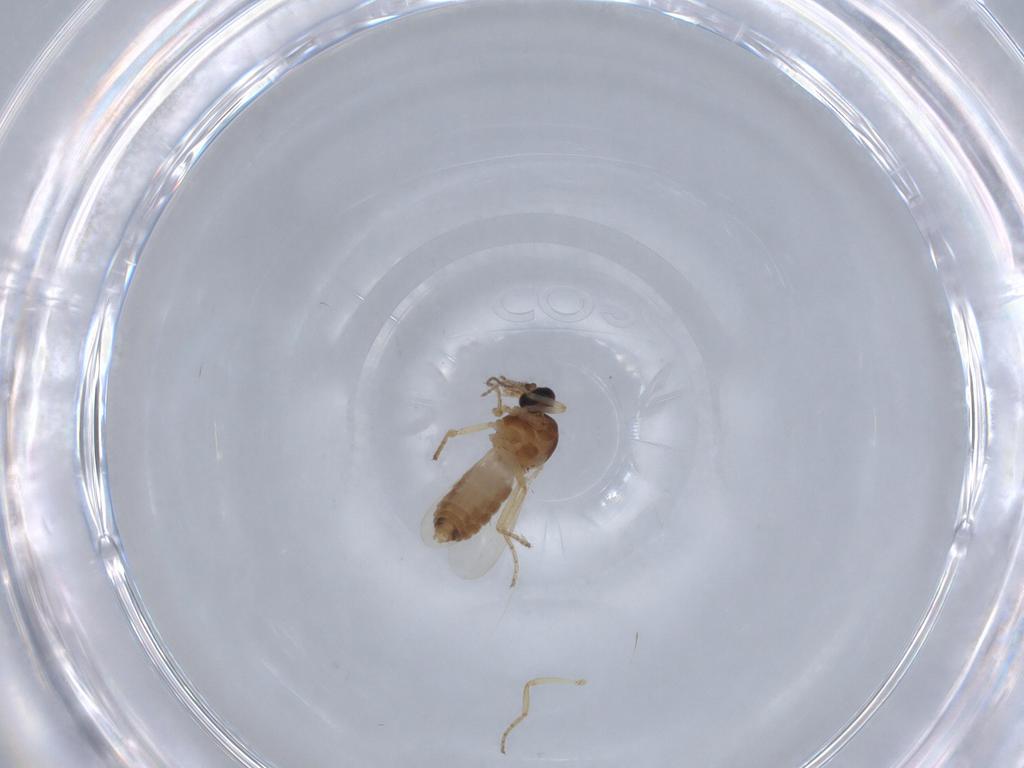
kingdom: Animalia
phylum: Arthropoda
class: Insecta
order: Diptera
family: Ceratopogonidae
